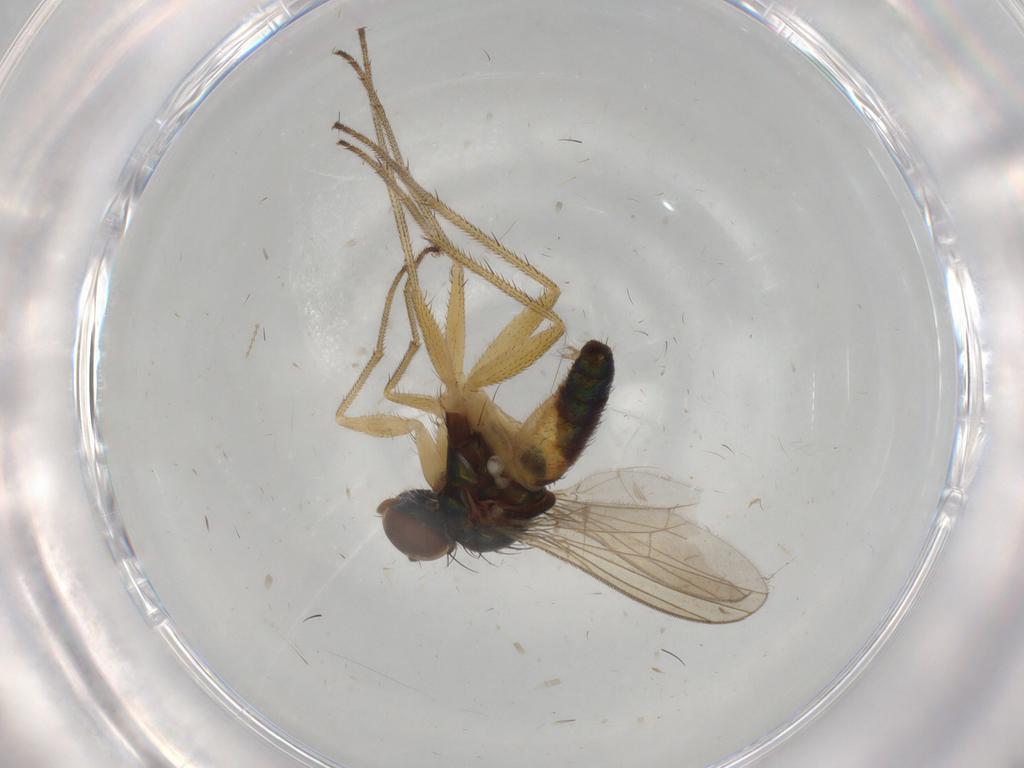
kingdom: Animalia
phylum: Arthropoda
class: Insecta
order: Diptera
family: Dolichopodidae
